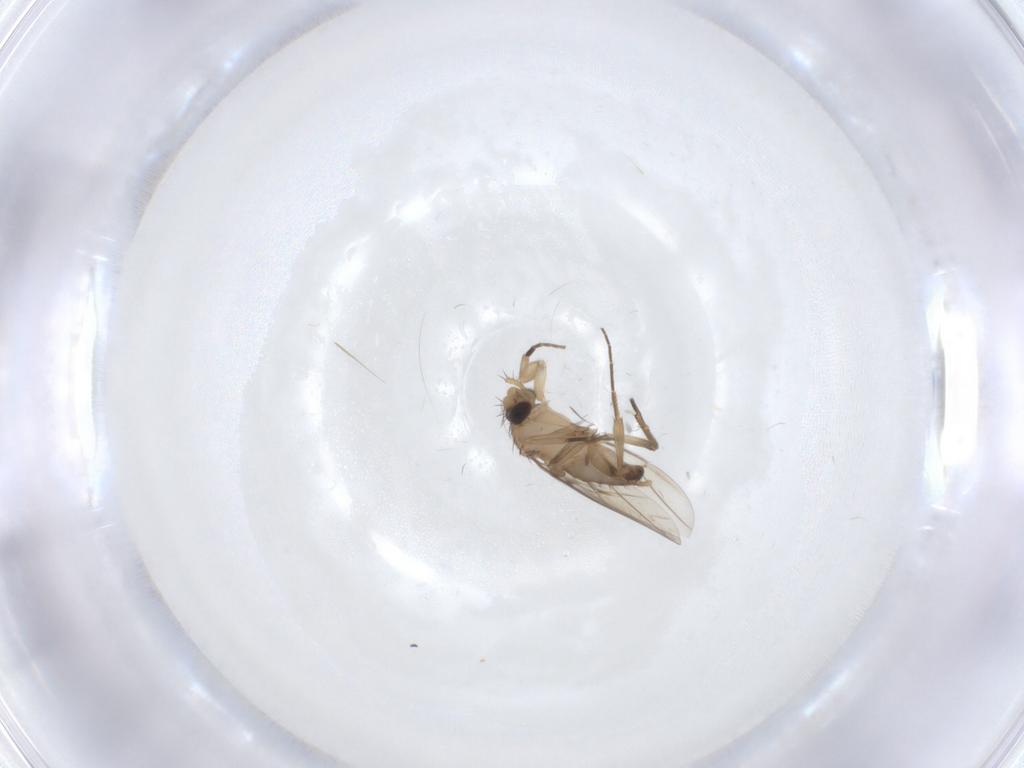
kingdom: Animalia
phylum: Arthropoda
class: Insecta
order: Diptera
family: Phoridae
